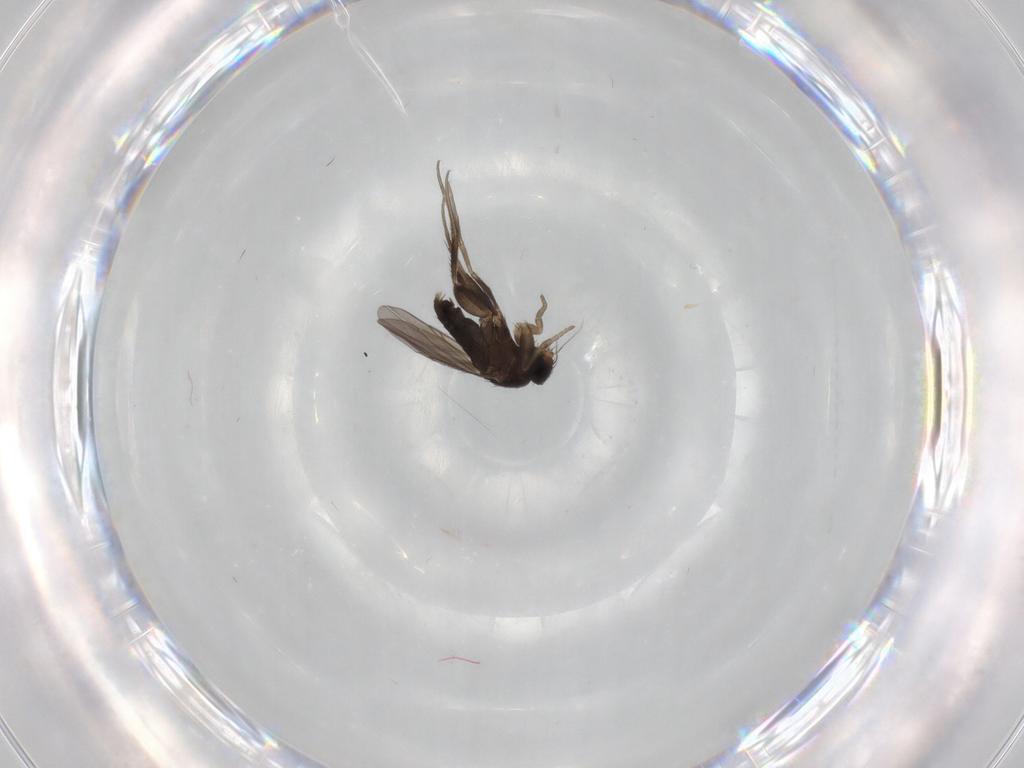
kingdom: Animalia
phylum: Arthropoda
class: Insecta
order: Diptera
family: Phoridae
